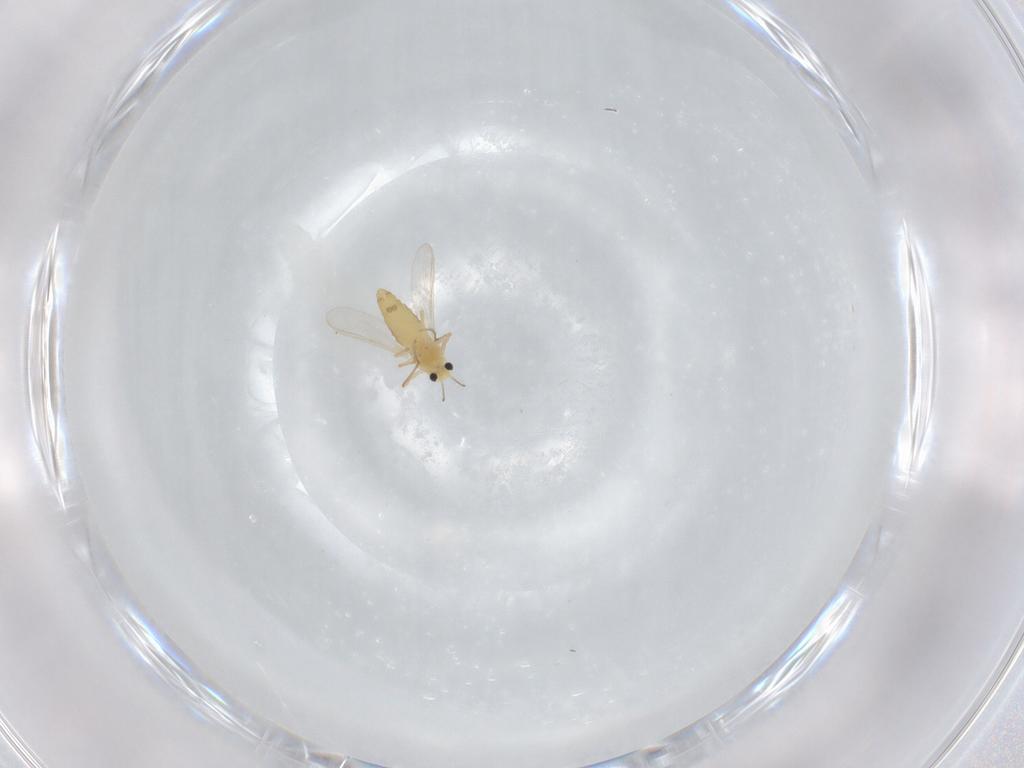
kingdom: Animalia
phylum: Arthropoda
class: Insecta
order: Diptera
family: Chironomidae
